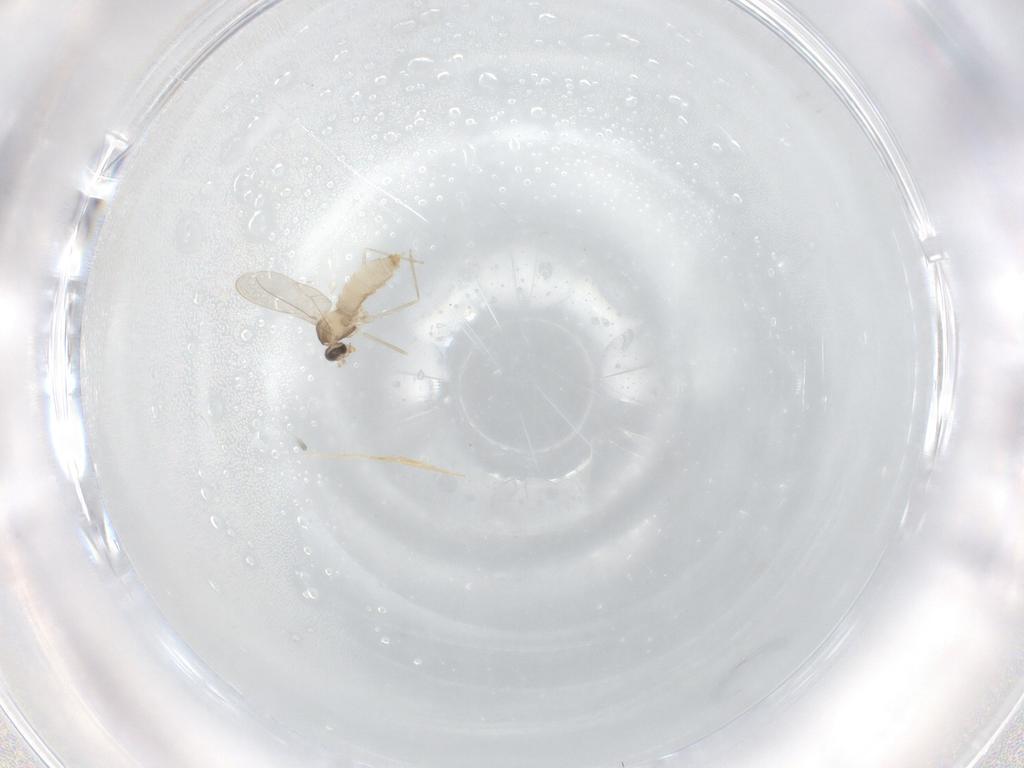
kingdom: Animalia
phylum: Arthropoda
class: Insecta
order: Diptera
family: Cecidomyiidae
